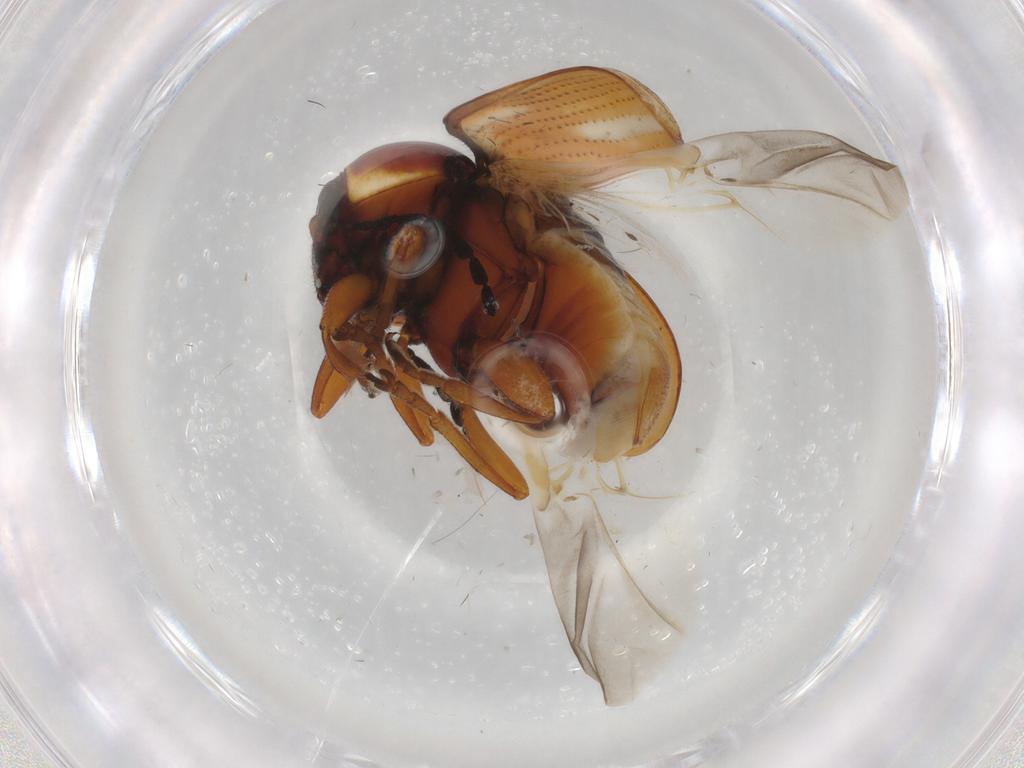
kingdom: Animalia
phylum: Arthropoda
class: Insecta
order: Coleoptera
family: Chrysomelidae
